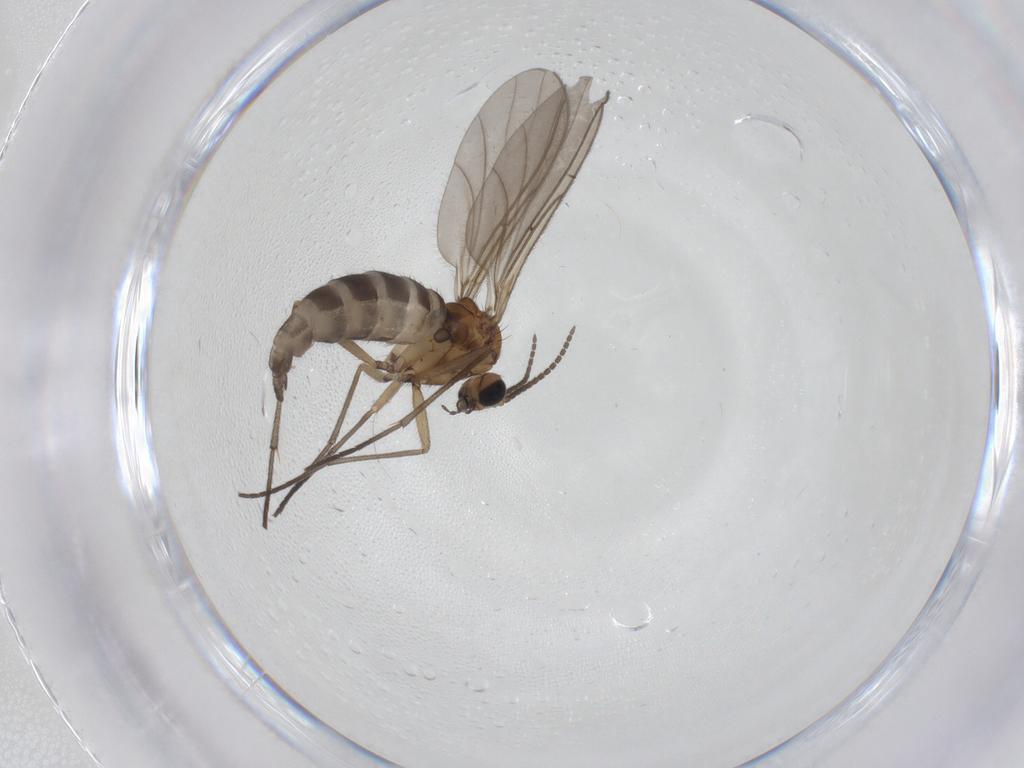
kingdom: Animalia
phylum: Arthropoda
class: Insecta
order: Diptera
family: Sciaridae
